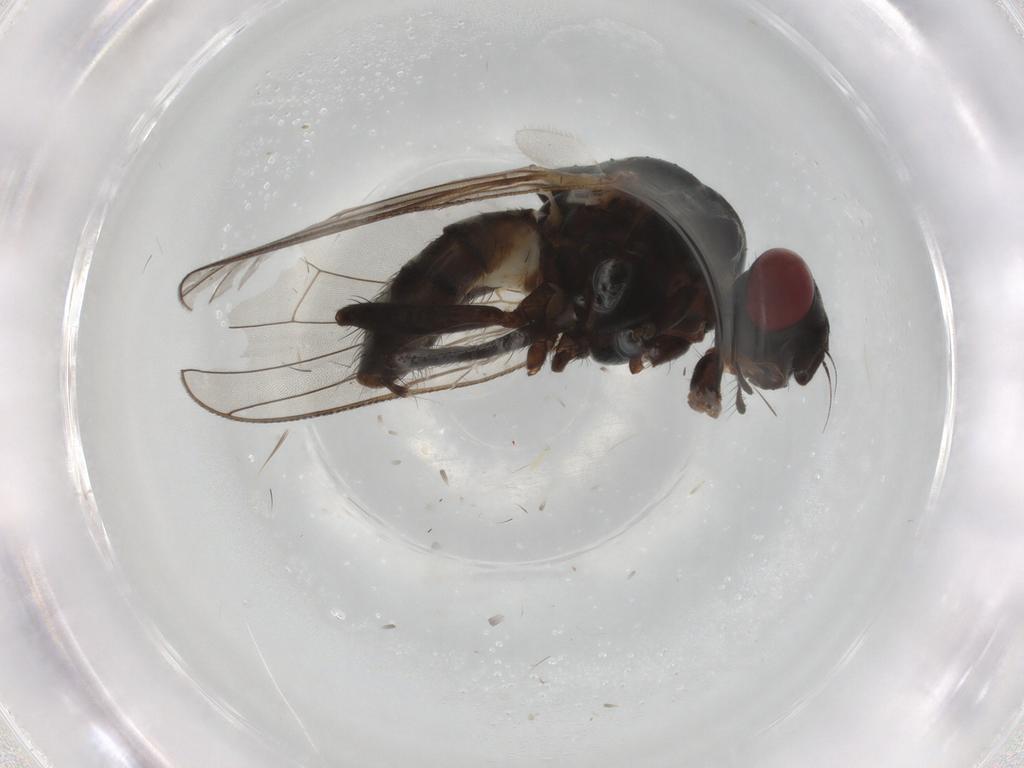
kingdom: Animalia
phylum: Arthropoda
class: Insecta
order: Diptera
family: Anthomyiidae
